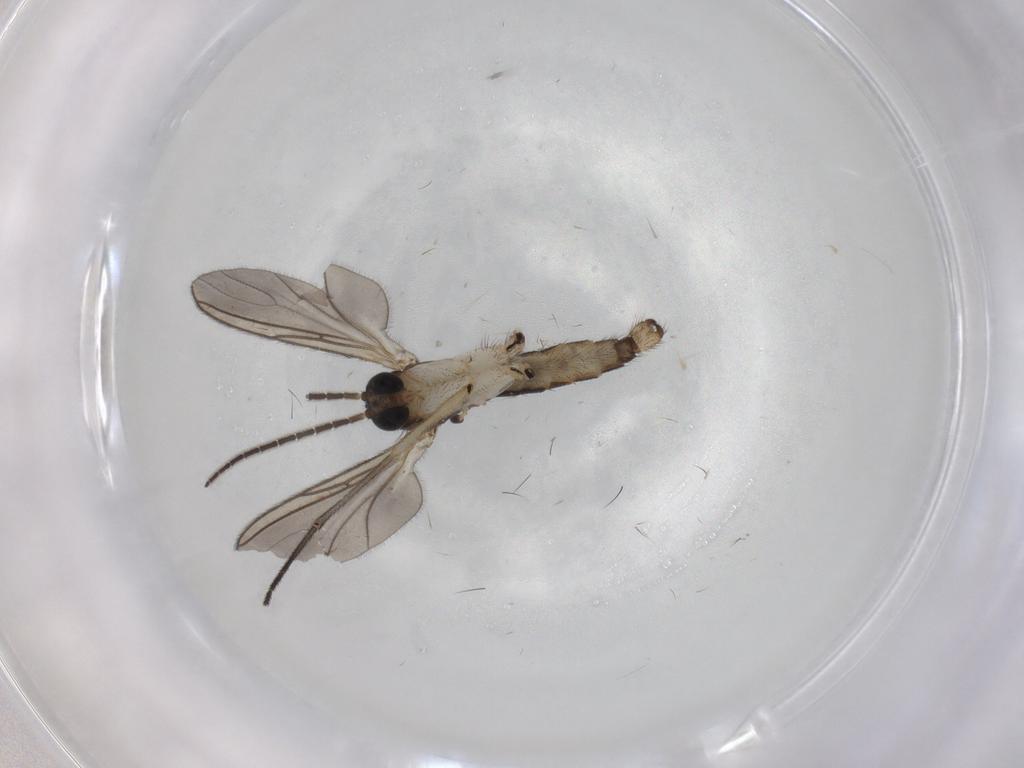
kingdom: Animalia
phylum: Arthropoda
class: Insecta
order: Diptera
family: Sciaridae
